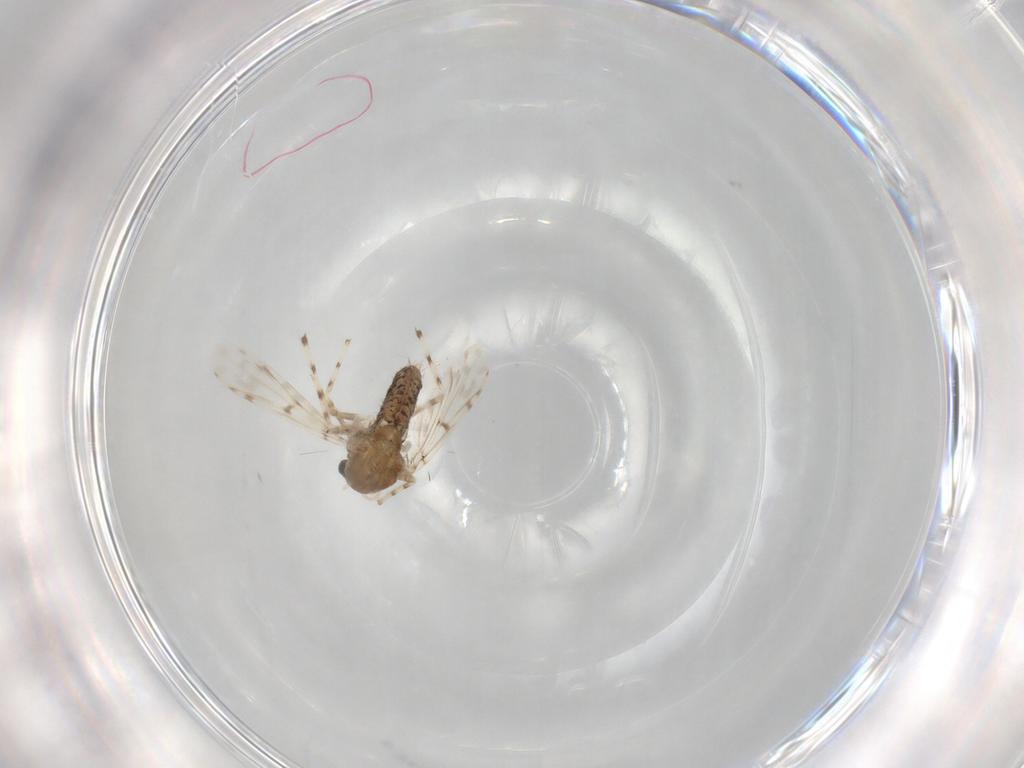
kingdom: Animalia
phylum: Arthropoda
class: Insecta
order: Diptera
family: Chironomidae
